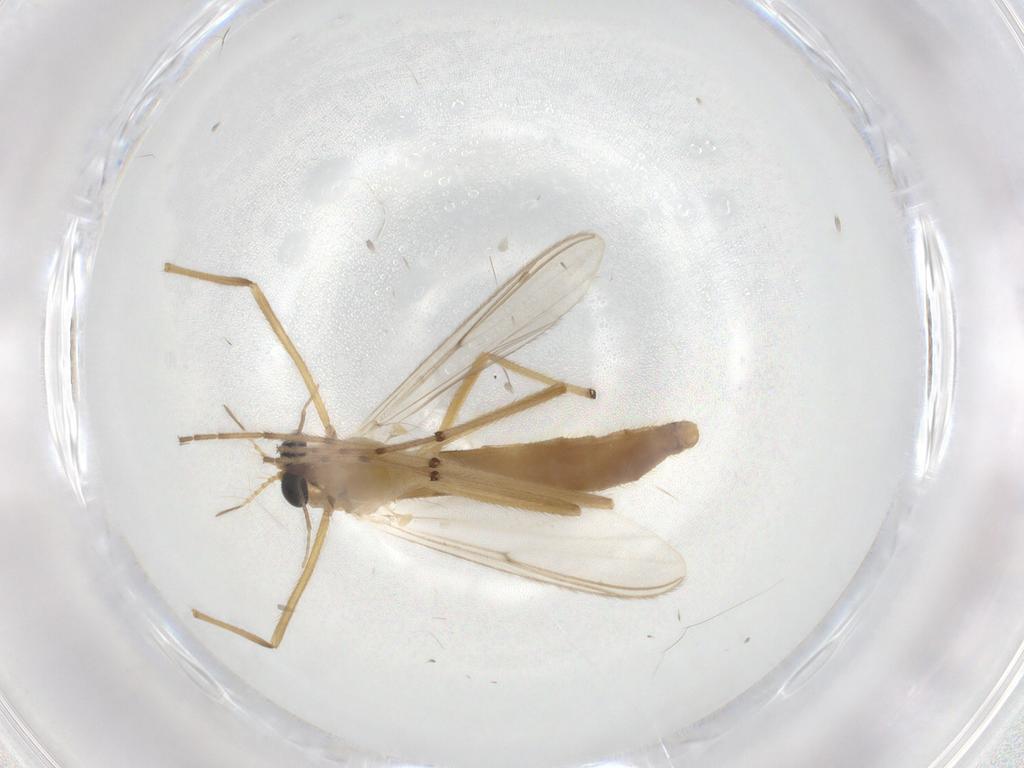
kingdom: Animalia
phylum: Arthropoda
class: Insecta
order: Diptera
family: Chironomidae
